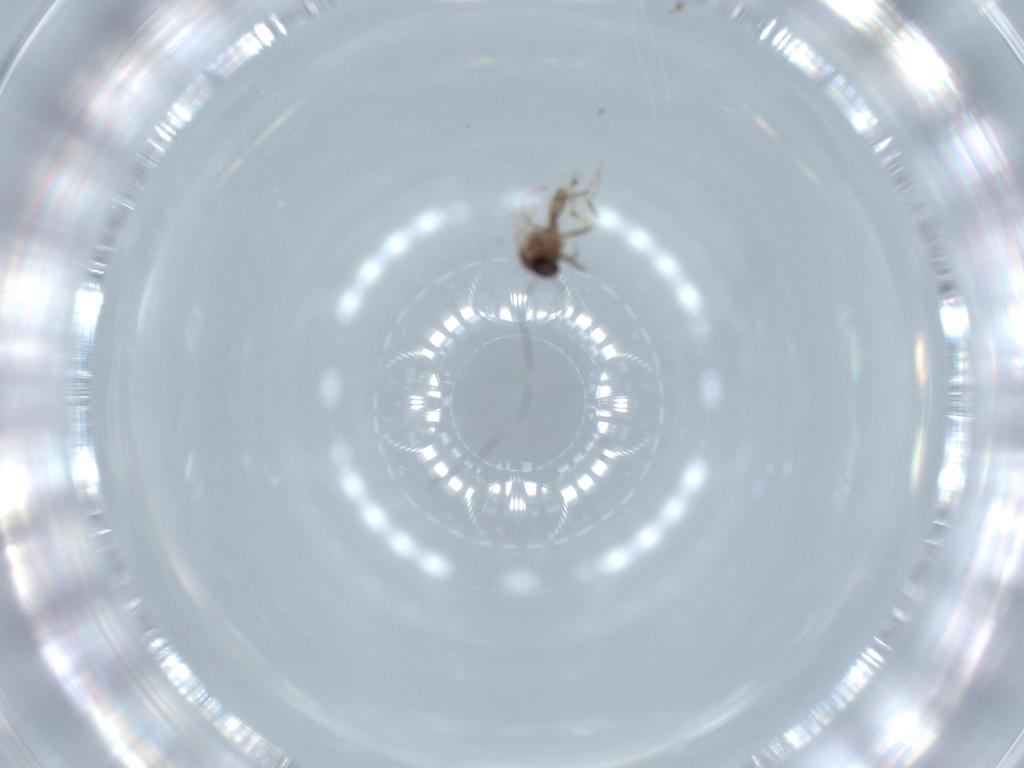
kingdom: Animalia
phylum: Arthropoda
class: Insecta
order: Diptera
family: Ceratopogonidae
